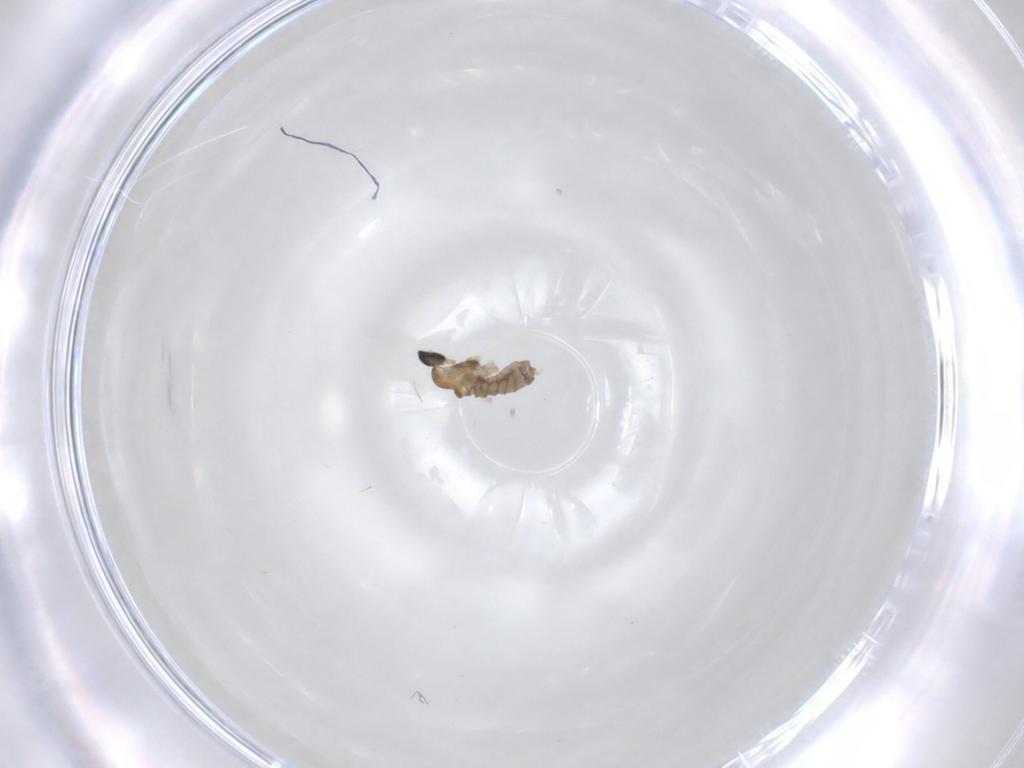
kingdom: Animalia
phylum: Arthropoda
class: Insecta
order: Diptera
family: Cecidomyiidae
